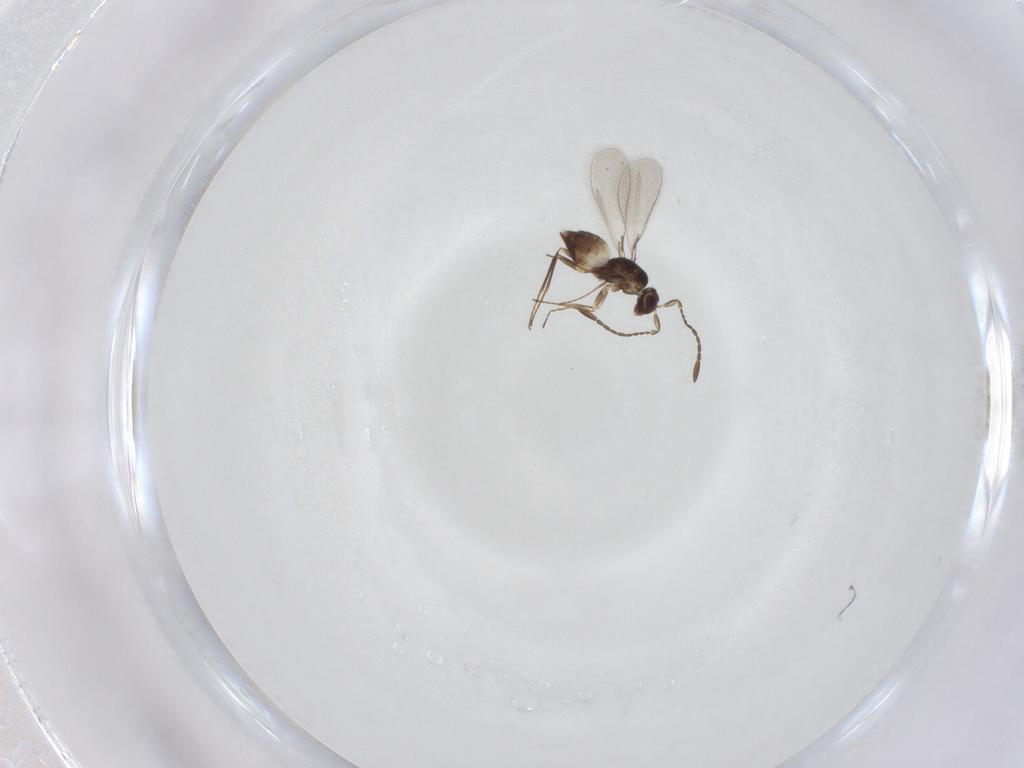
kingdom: Animalia
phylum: Arthropoda
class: Insecta
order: Hymenoptera
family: Mymaridae
